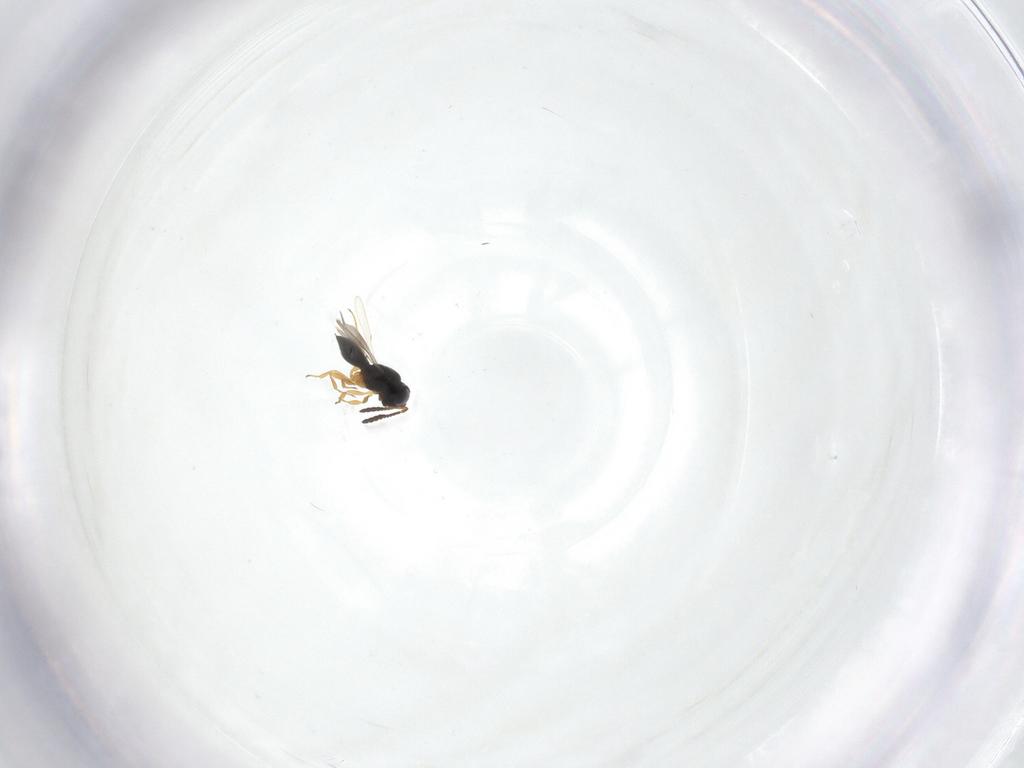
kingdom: Animalia
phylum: Arthropoda
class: Insecta
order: Hymenoptera
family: Scelionidae
